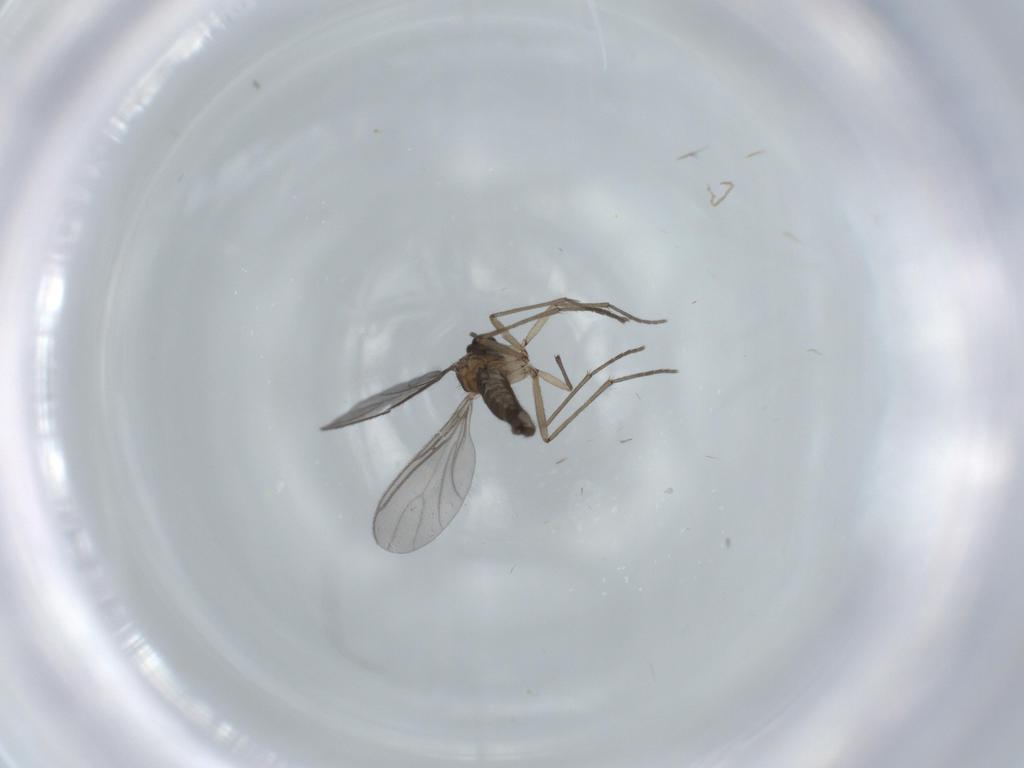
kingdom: Animalia
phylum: Arthropoda
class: Insecta
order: Diptera
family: Sciaridae
